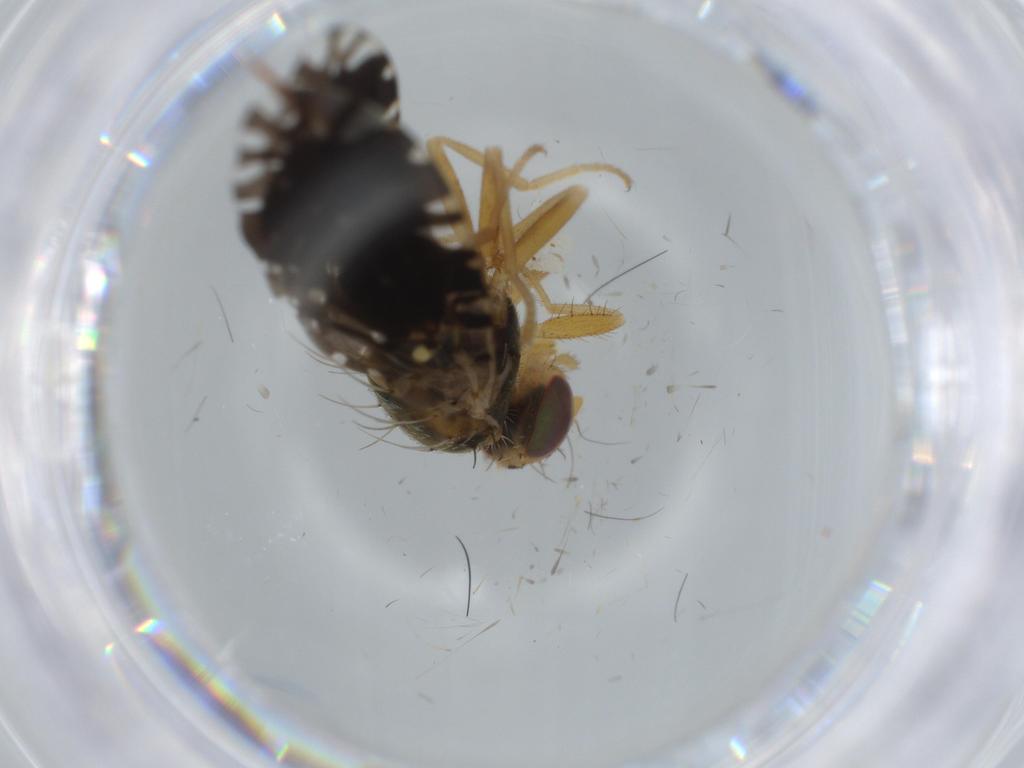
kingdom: Animalia
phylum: Arthropoda
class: Insecta
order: Diptera
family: Tephritidae
